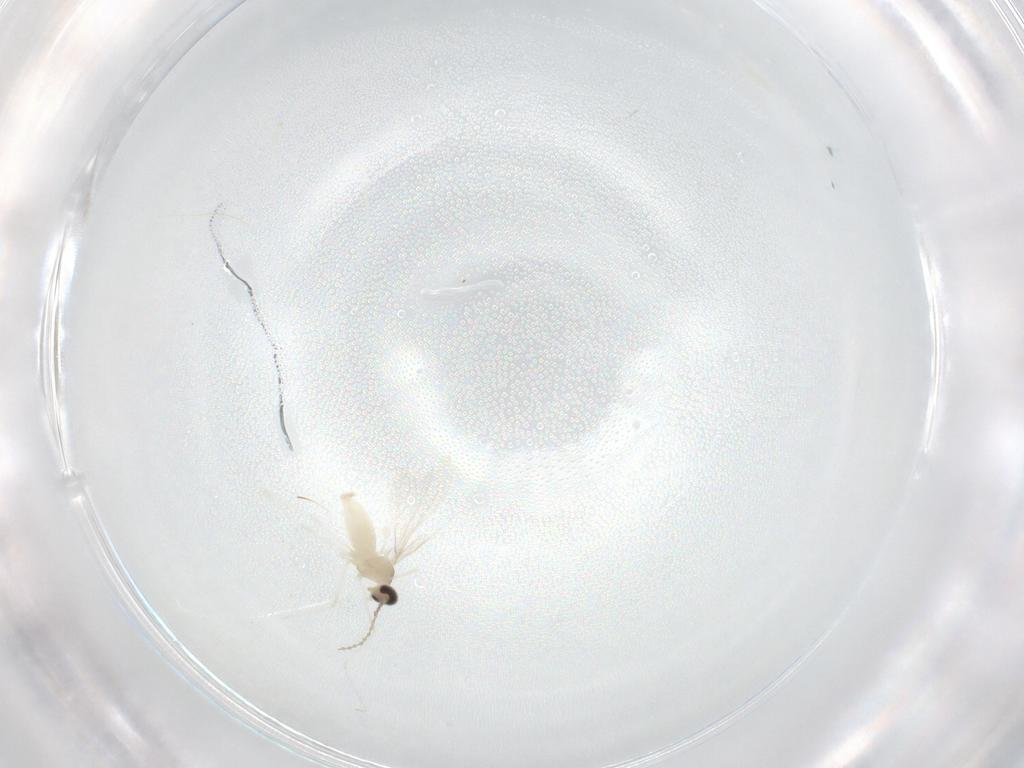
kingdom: Animalia
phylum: Arthropoda
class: Insecta
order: Diptera
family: Cecidomyiidae
